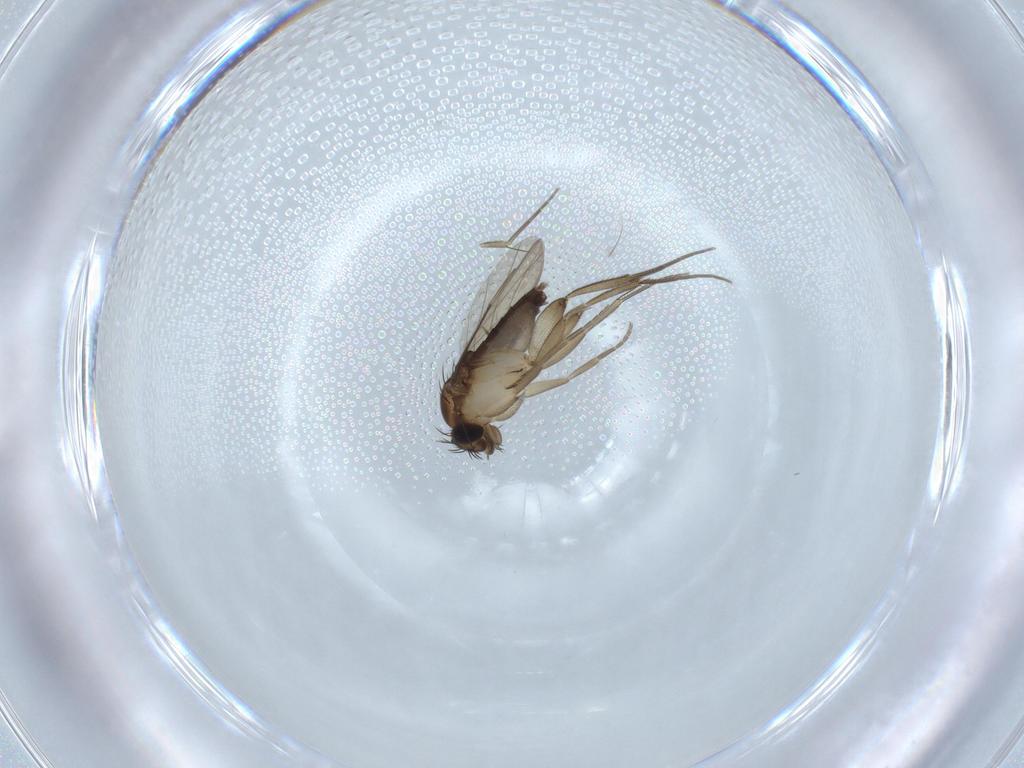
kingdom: Animalia
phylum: Arthropoda
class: Insecta
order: Diptera
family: Phoridae
